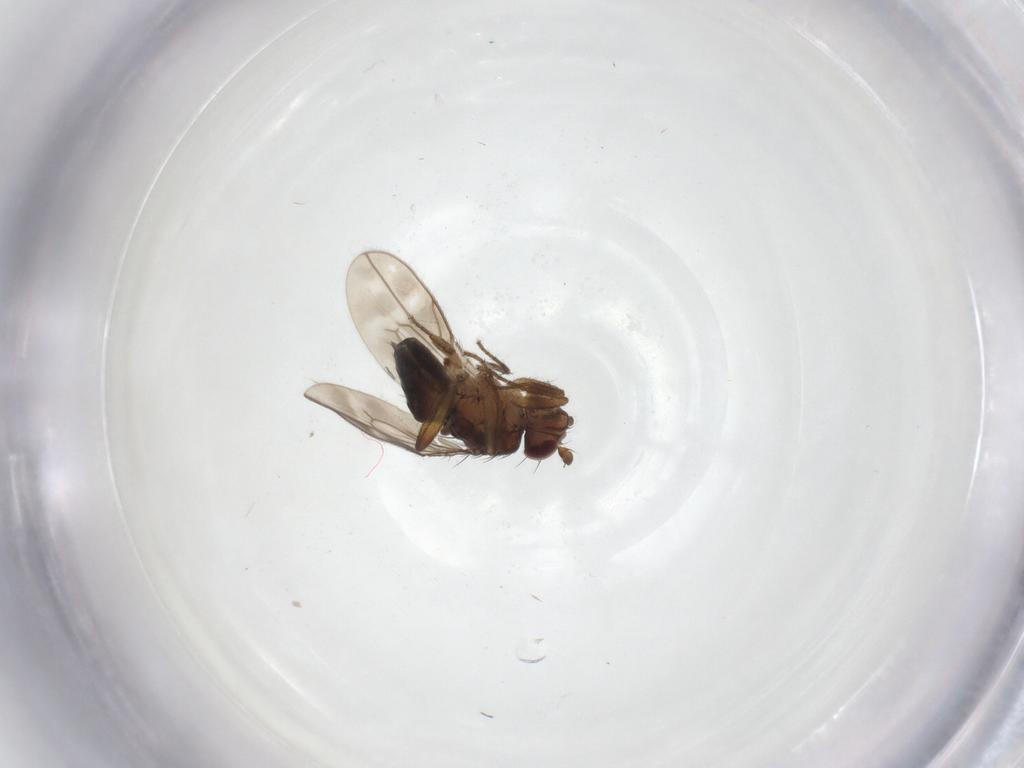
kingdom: Animalia
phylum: Arthropoda
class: Insecta
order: Diptera
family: Sphaeroceridae
